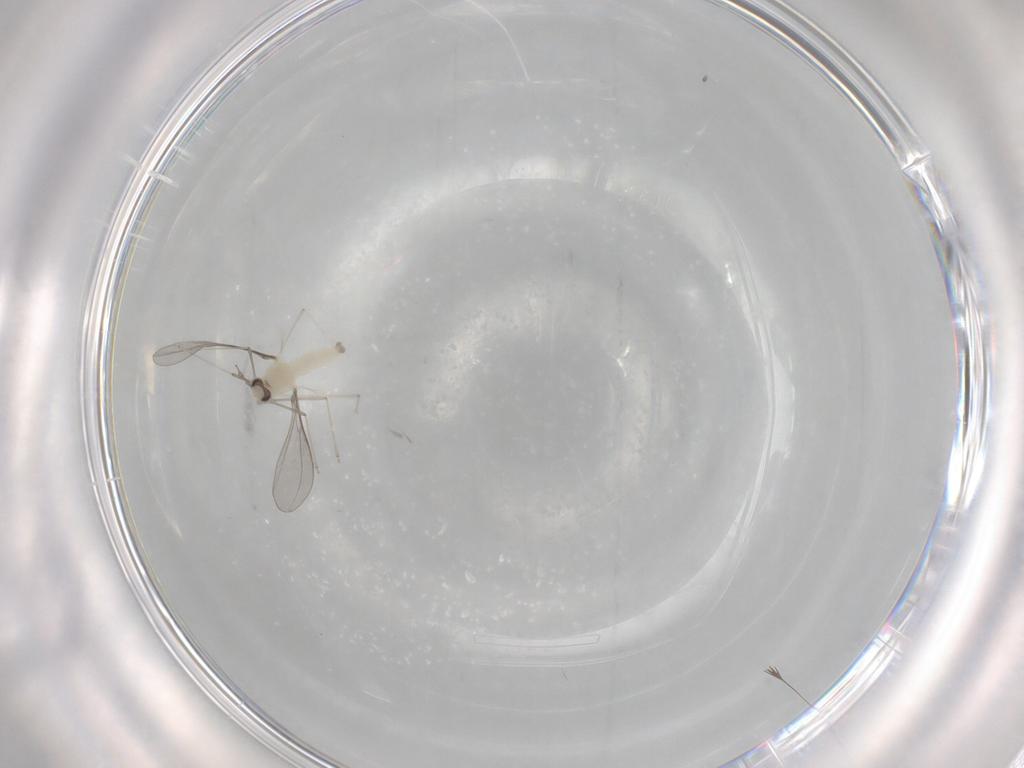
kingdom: Animalia
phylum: Arthropoda
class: Insecta
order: Diptera
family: Cecidomyiidae
